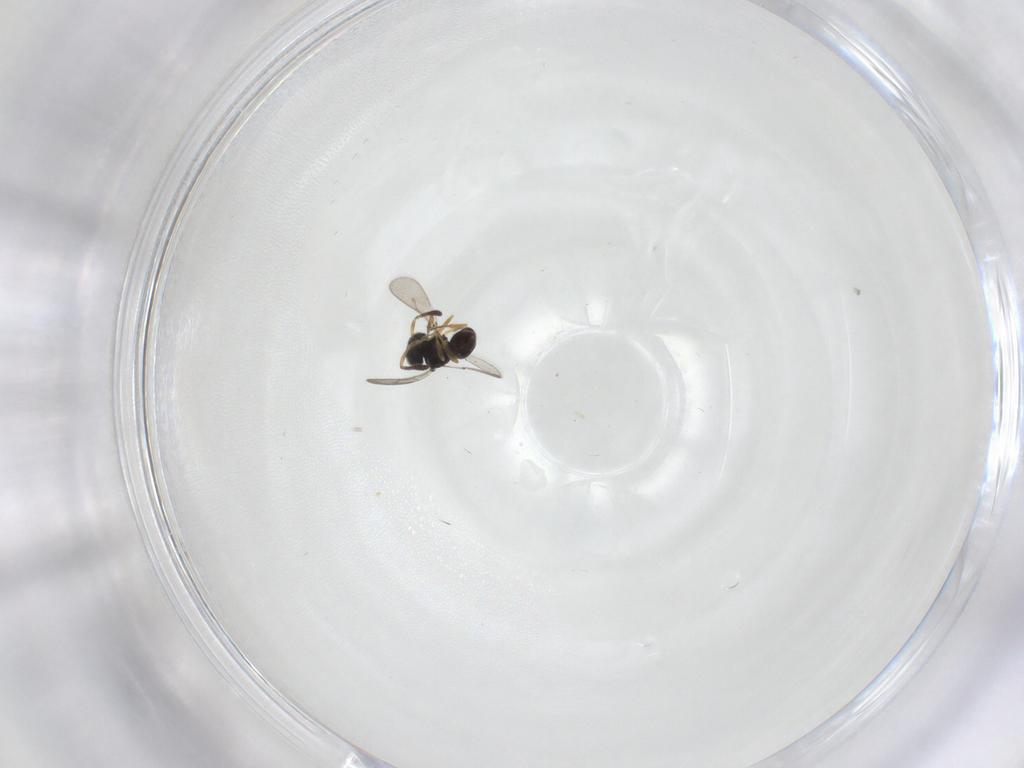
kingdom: Animalia
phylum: Arthropoda
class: Insecta
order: Hymenoptera
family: Scelionidae
